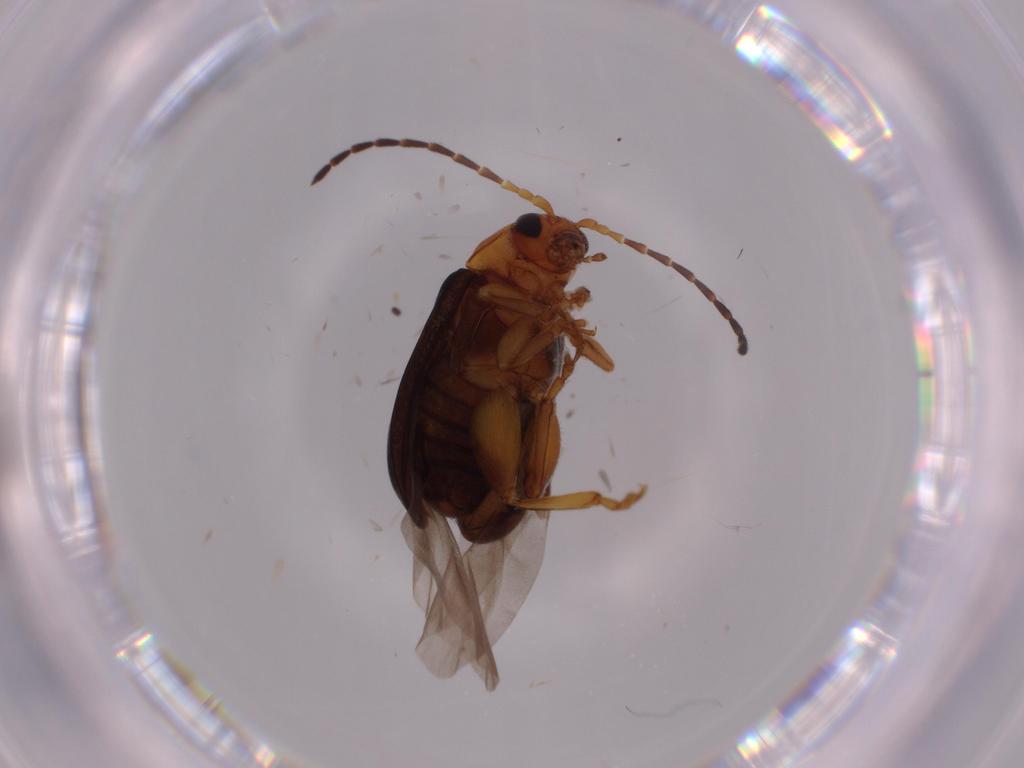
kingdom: Animalia
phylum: Arthropoda
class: Insecta
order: Coleoptera
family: Chrysomelidae
